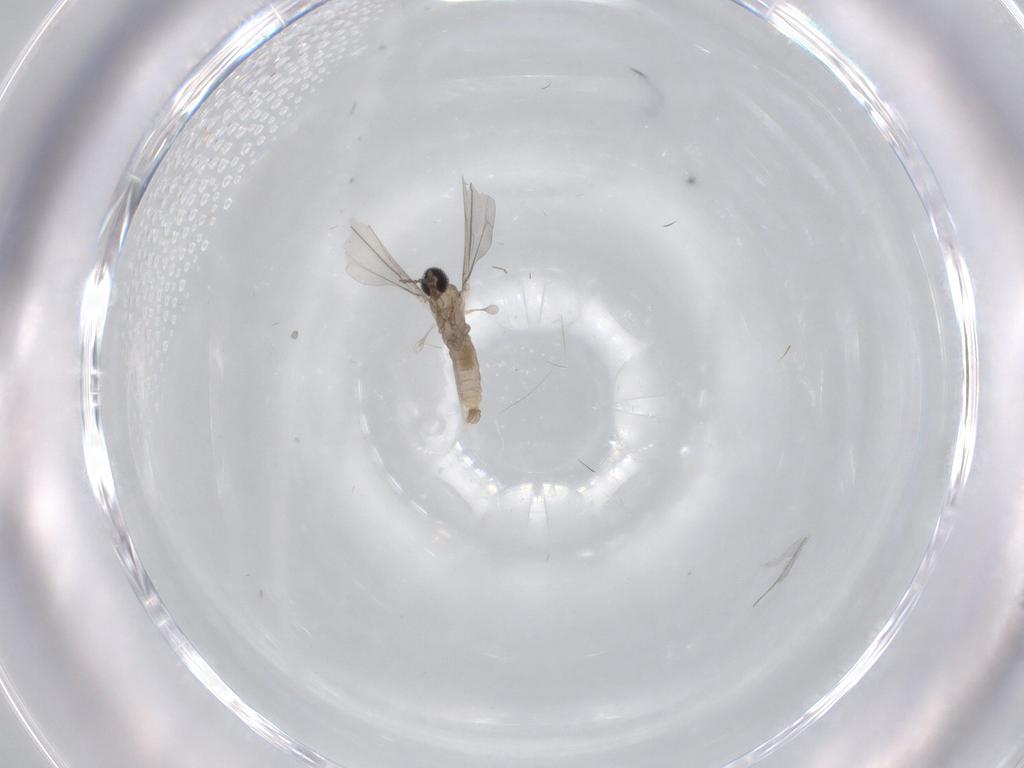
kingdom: Animalia
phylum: Arthropoda
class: Insecta
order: Diptera
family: Cecidomyiidae
